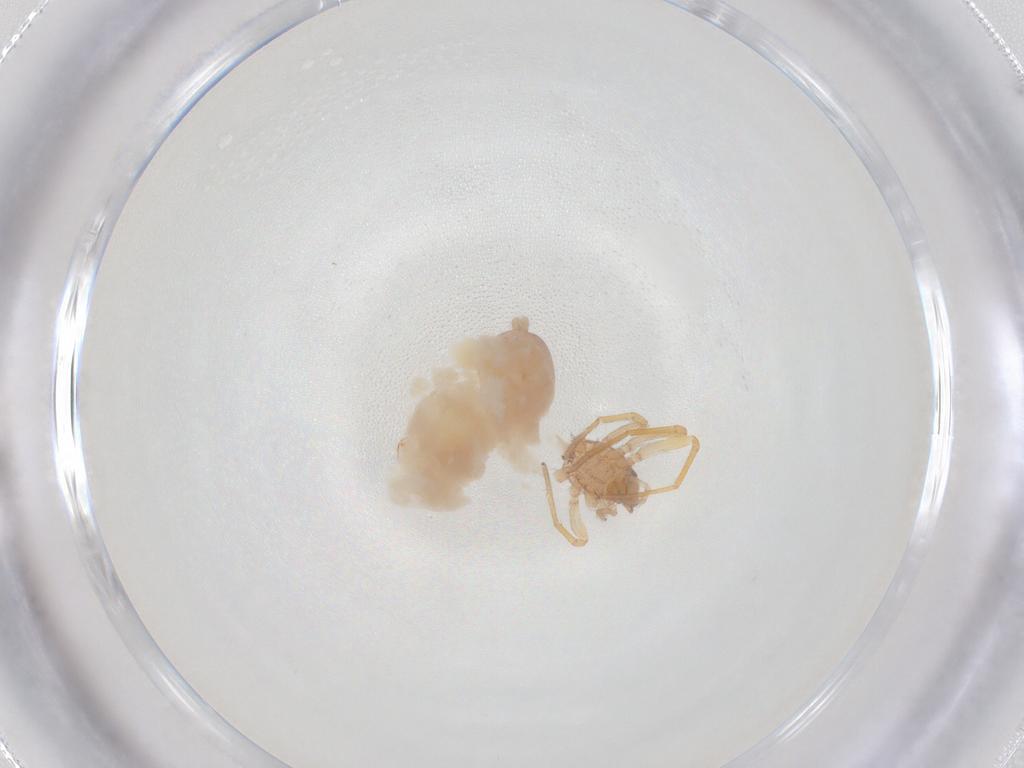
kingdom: Animalia
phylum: Arthropoda
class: Arachnida
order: Araneae
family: Idiopidae
